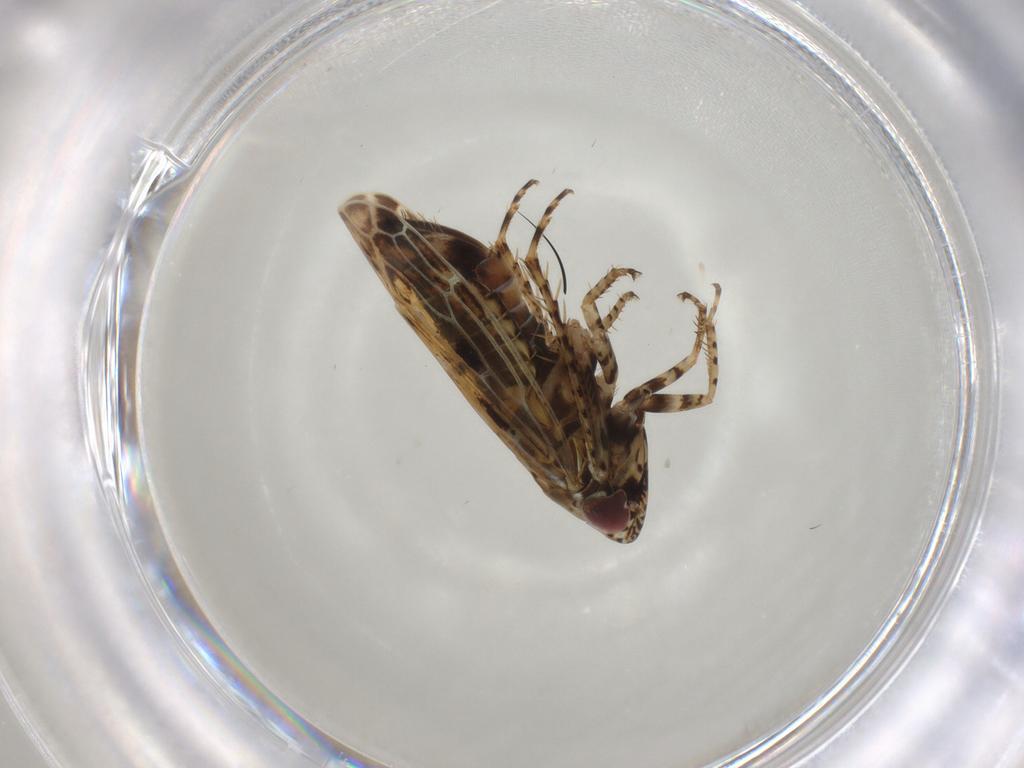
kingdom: Animalia
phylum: Arthropoda
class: Insecta
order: Hemiptera
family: Cicadellidae
